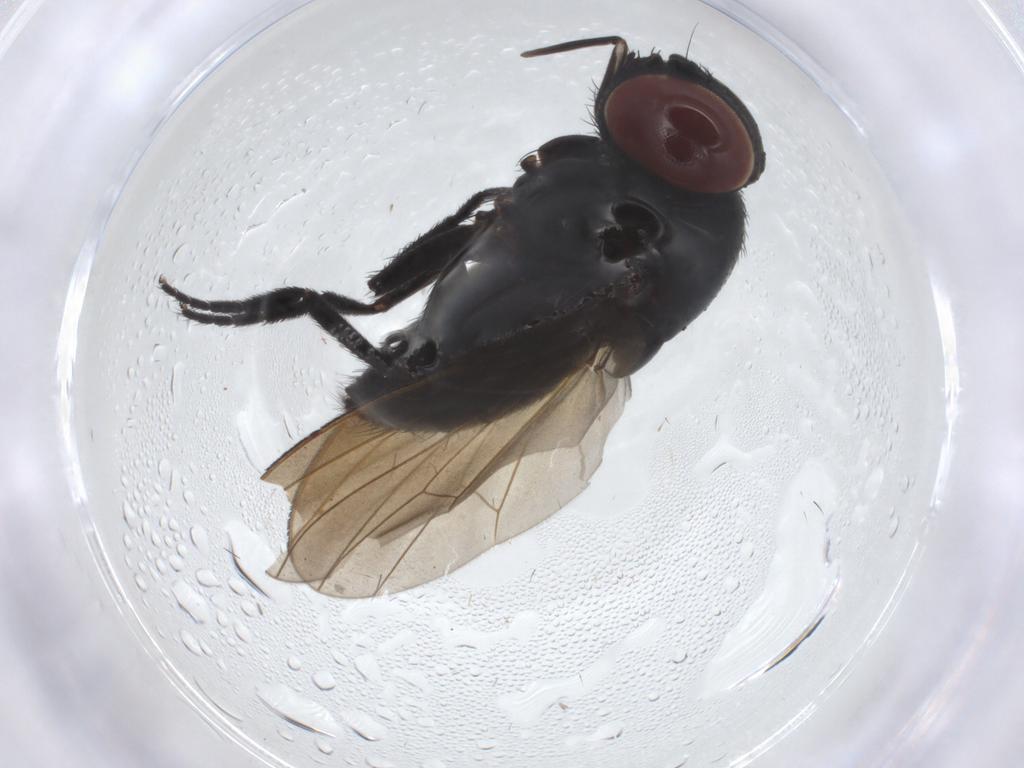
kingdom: Animalia
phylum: Arthropoda
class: Insecta
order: Diptera
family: Milichiidae
